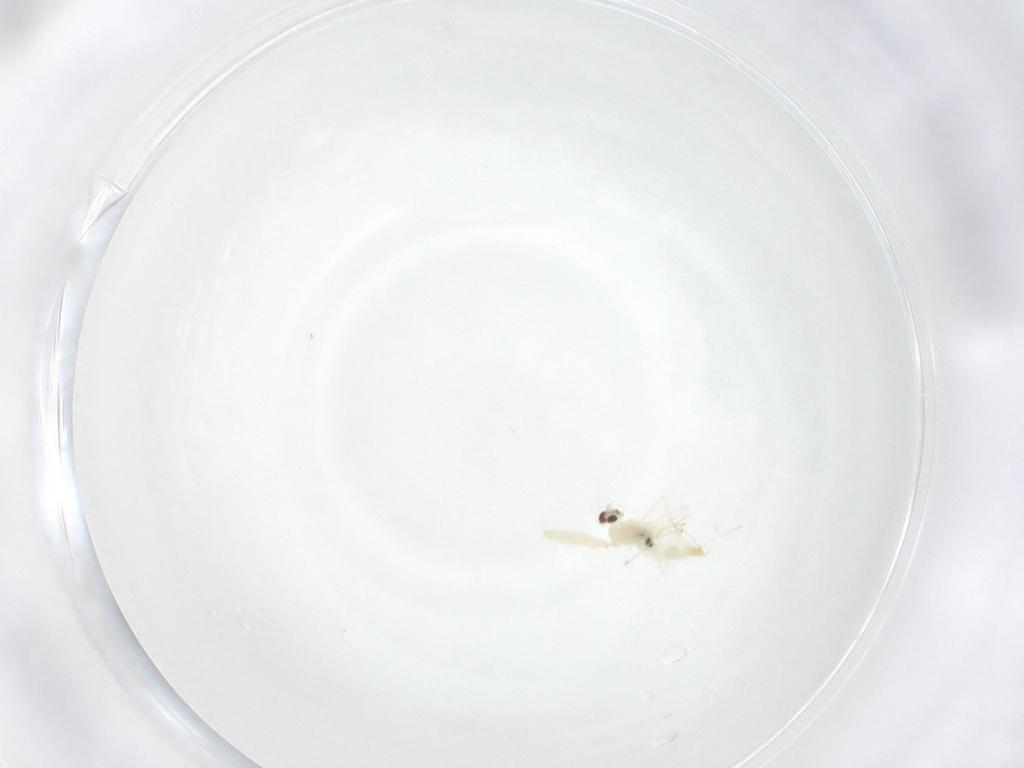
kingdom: Animalia
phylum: Arthropoda
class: Insecta
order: Diptera
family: Cecidomyiidae
